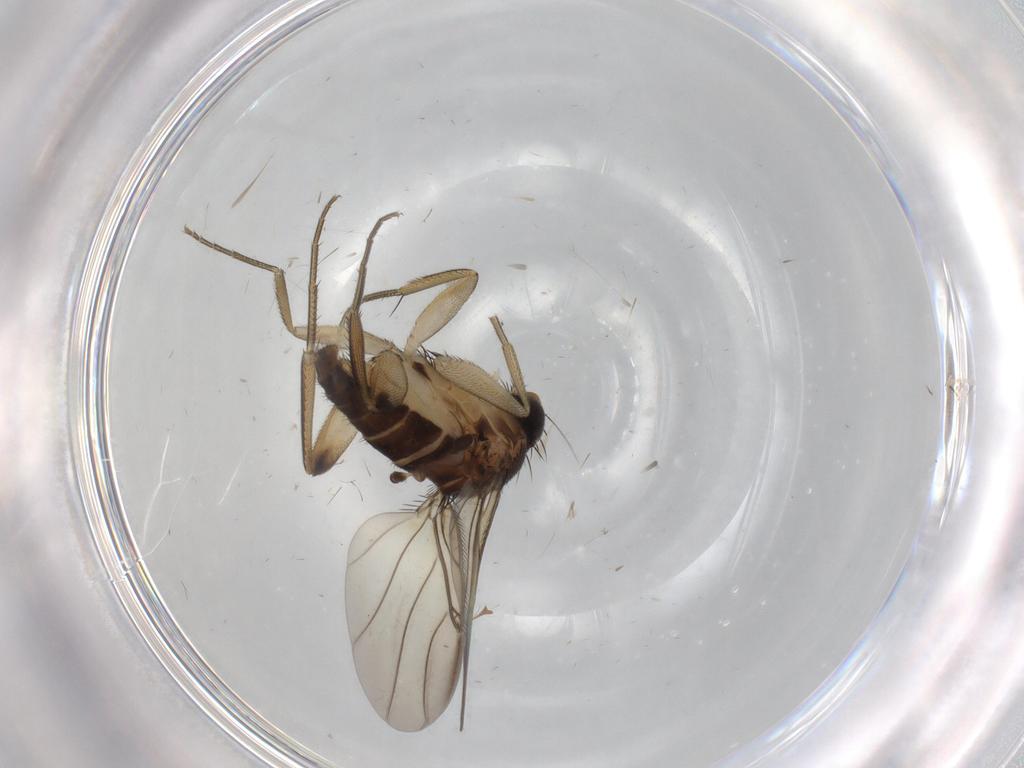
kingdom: Animalia
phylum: Arthropoda
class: Insecta
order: Diptera
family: Phoridae
